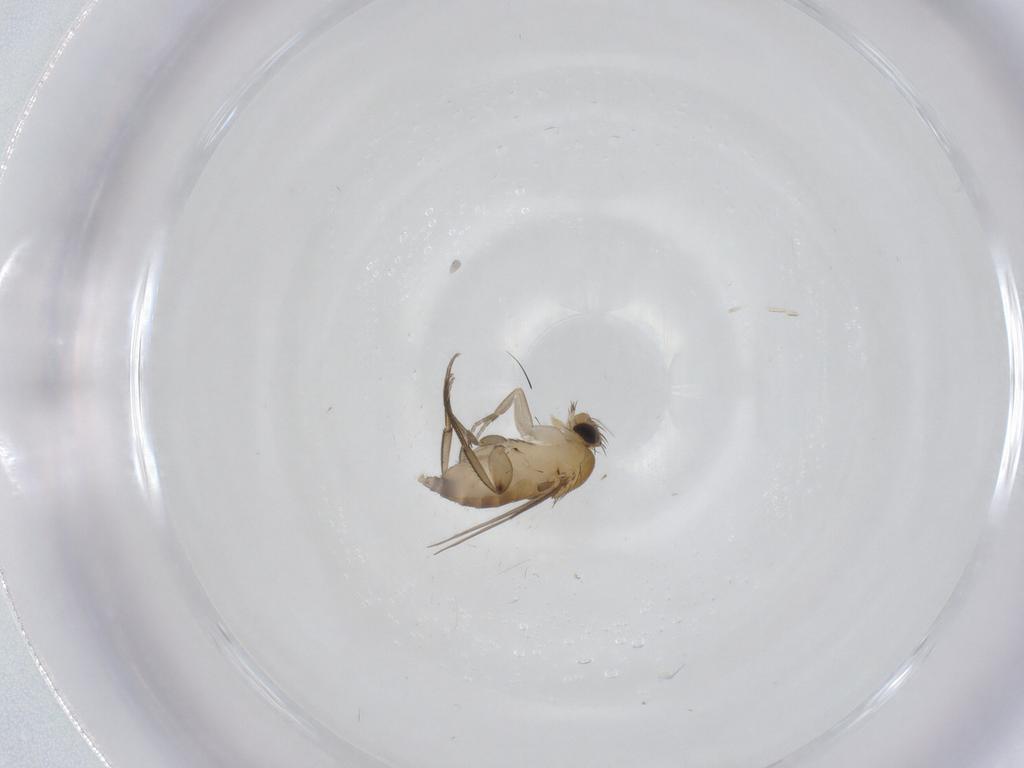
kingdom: Animalia
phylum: Arthropoda
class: Insecta
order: Diptera
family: Phoridae
